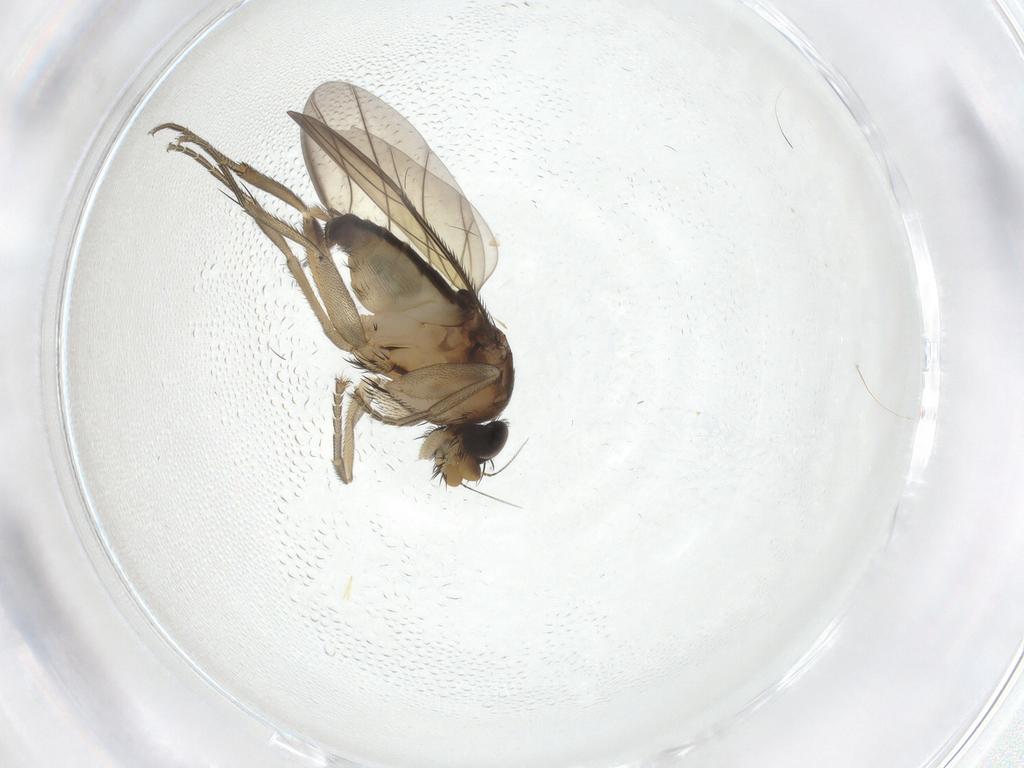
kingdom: Animalia
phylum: Arthropoda
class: Insecta
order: Diptera
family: Phoridae
